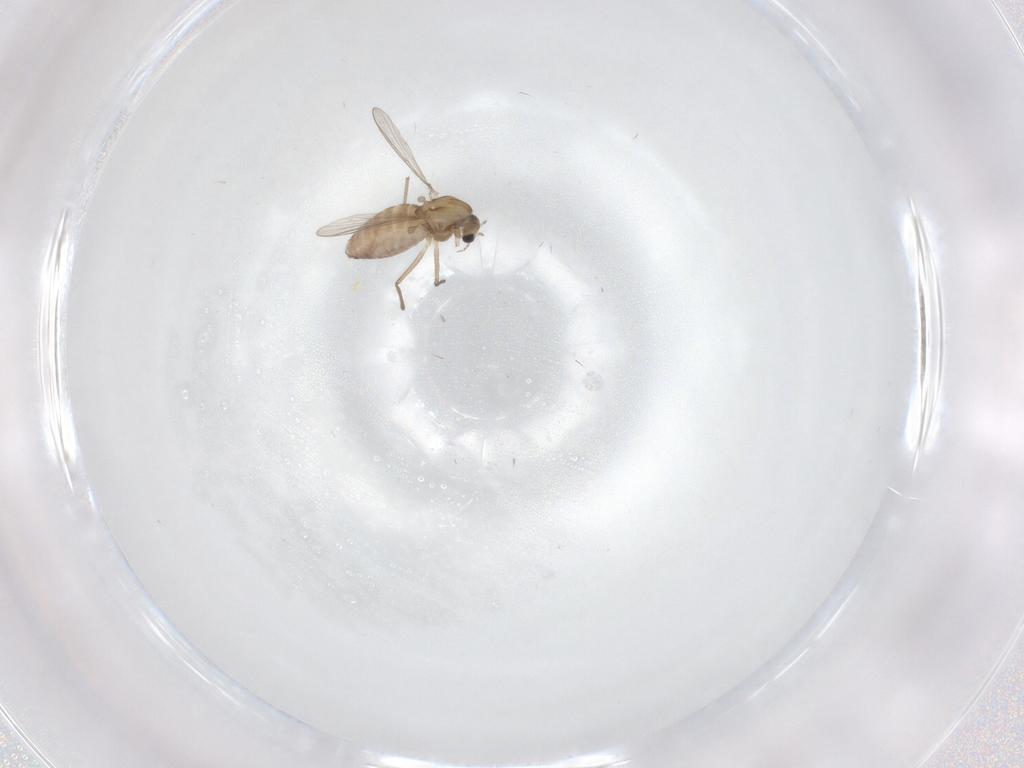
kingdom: Animalia
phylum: Arthropoda
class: Insecta
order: Diptera
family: Chironomidae
